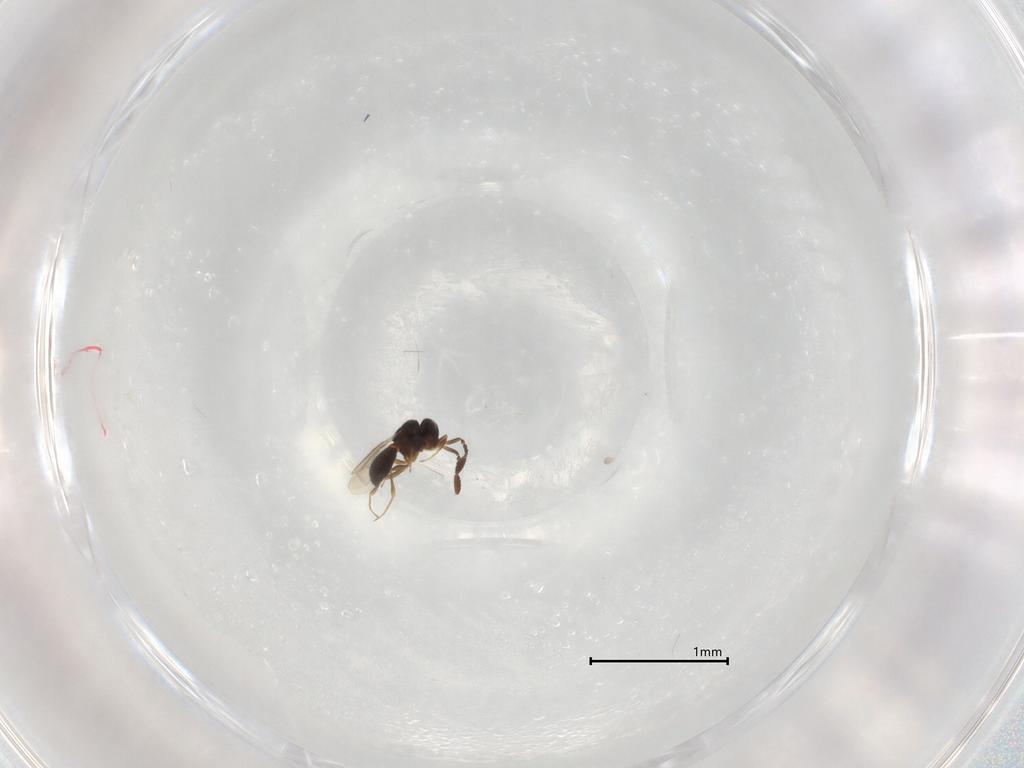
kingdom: Animalia
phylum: Arthropoda
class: Insecta
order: Hymenoptera
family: Scelionidae
